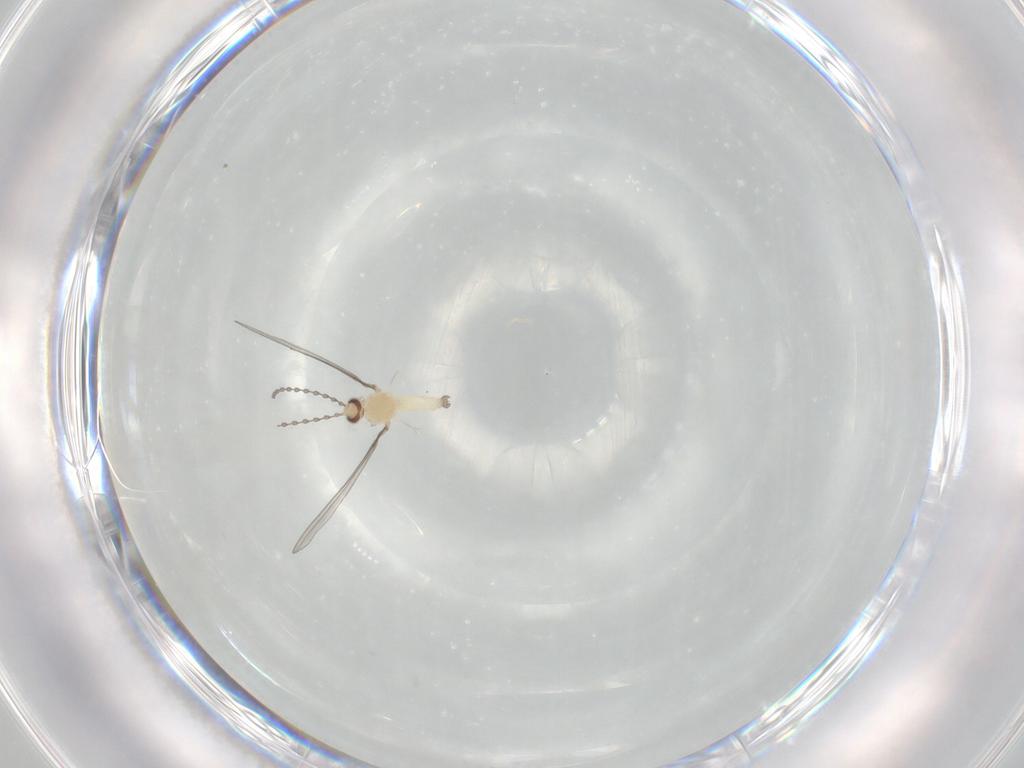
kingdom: Animalia
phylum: Arthropoda
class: Insecta
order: Diptera
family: Cecidomyiidae
